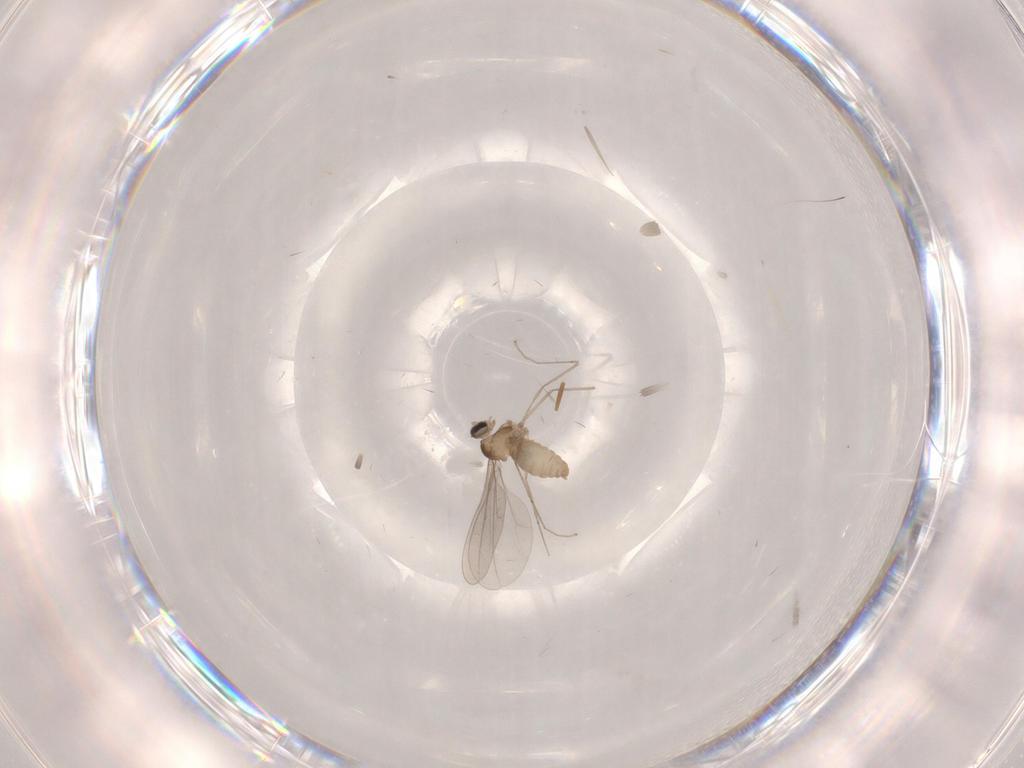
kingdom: Animalia
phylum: Arthropoda
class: Insecta
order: Diptera
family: Cecidomyiidae
